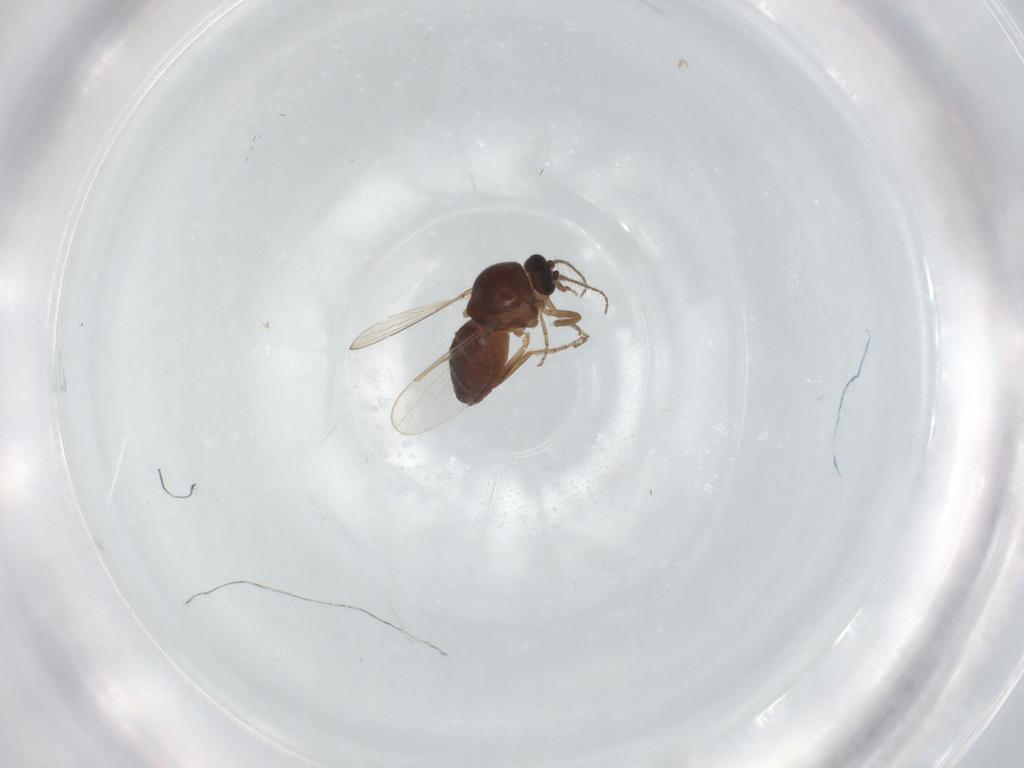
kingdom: Animalia
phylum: Arthropoda
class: Insecta
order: Diptera
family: Ceratopogonidae
